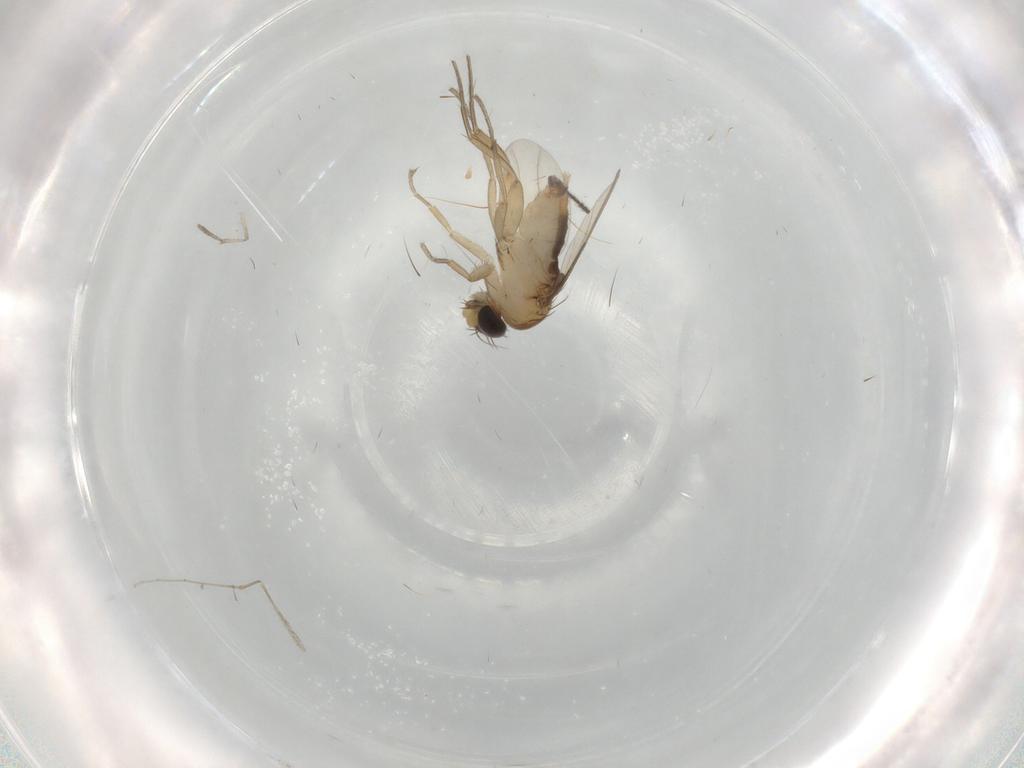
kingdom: Animalia
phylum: Arthropoda
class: Insecta
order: Diptera
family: Phoridae
